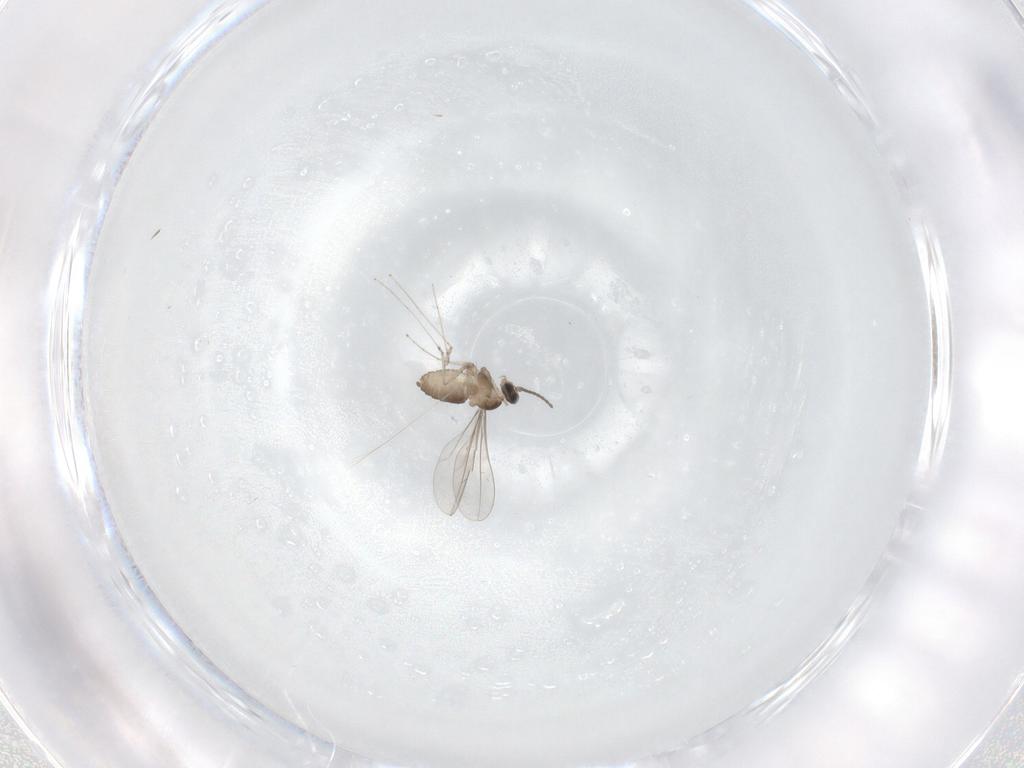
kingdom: Animalia
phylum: Arthropoda
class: Insecta
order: Diptera
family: Cecidomyiidae
